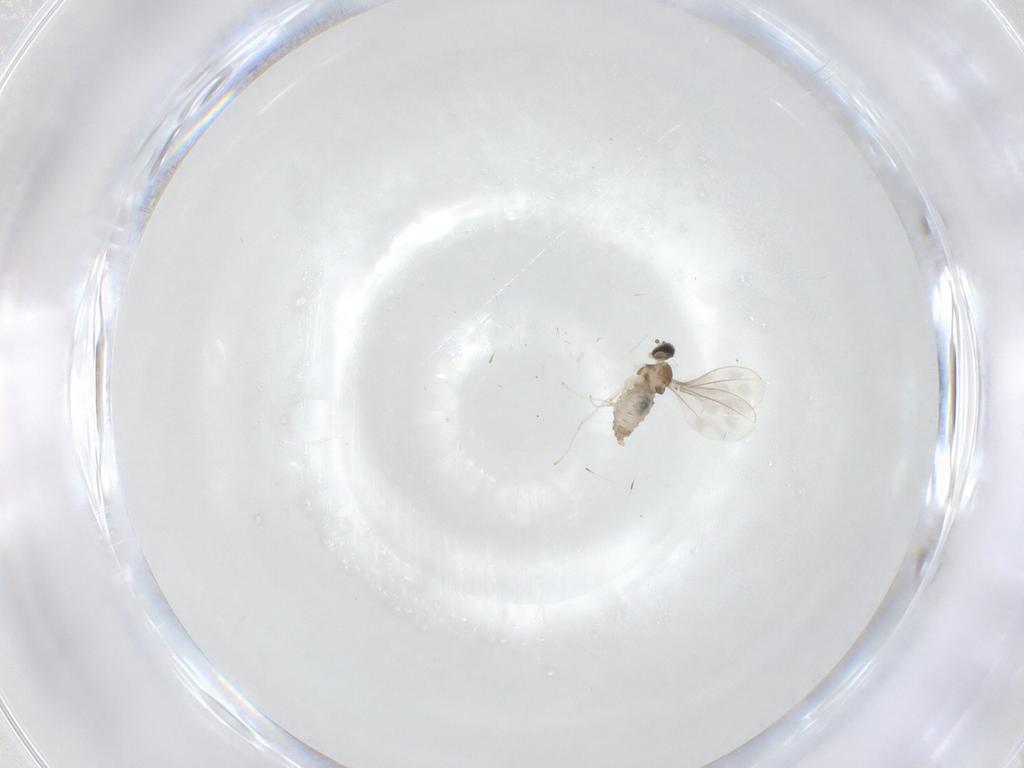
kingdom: Animalia
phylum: Arthropoda
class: Insecta
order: Diptera
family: Cecidomyiidae
